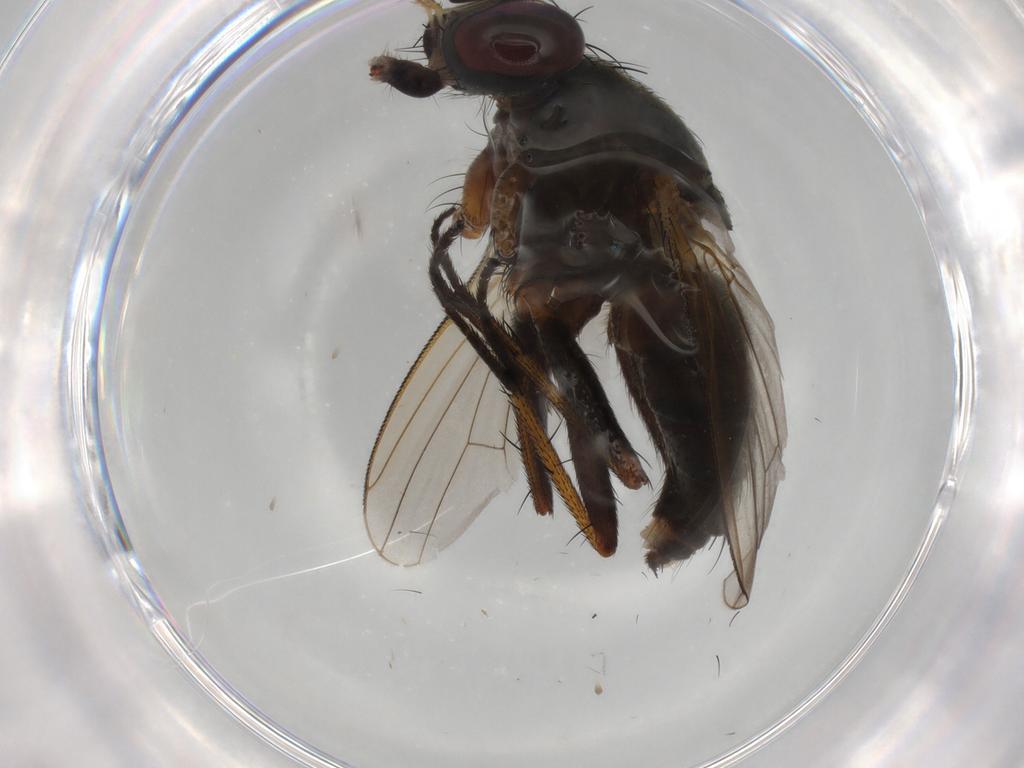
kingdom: Animalia
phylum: Arthropoda
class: Insecta
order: Diptera
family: Muscidae
